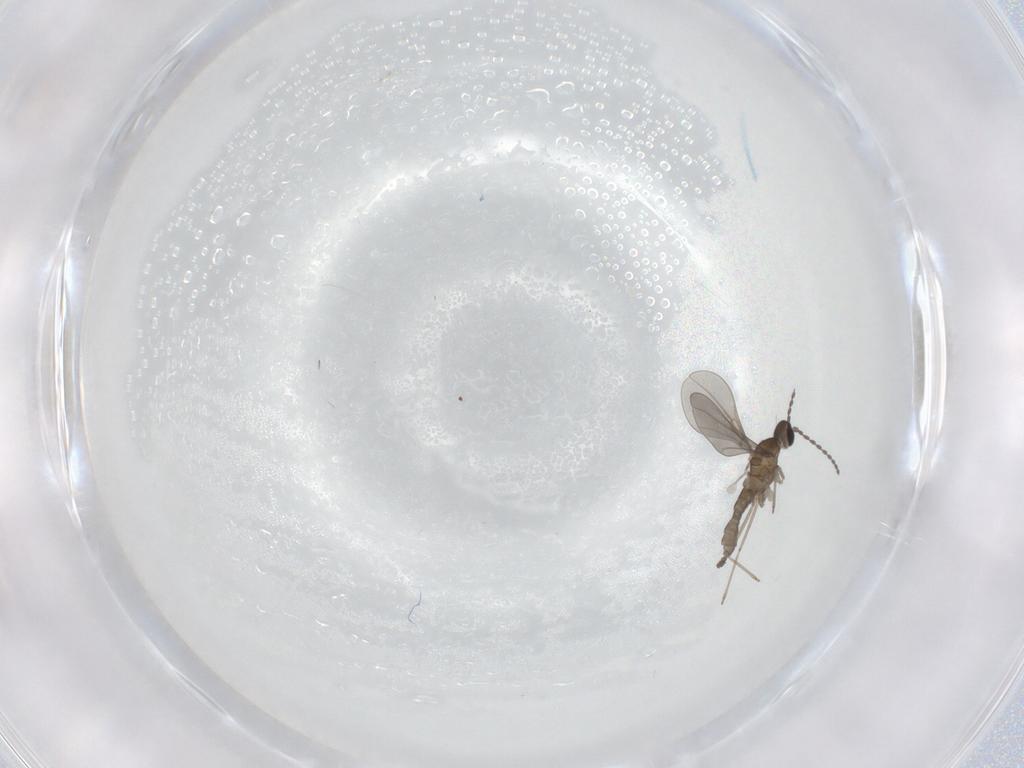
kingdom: Animalia
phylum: Arthropoda
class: Insecta
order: Diptera
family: Cecidomyiidae
